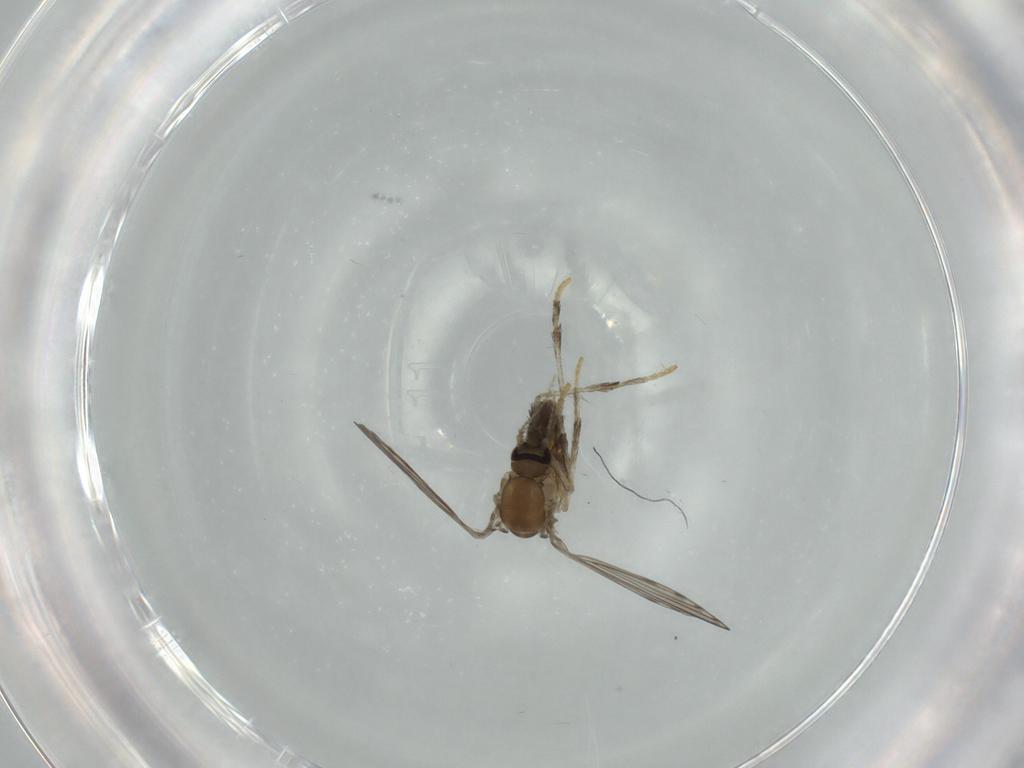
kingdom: Animalia
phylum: Arthropoda
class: Insecta
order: Diptera
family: Psychodidae
